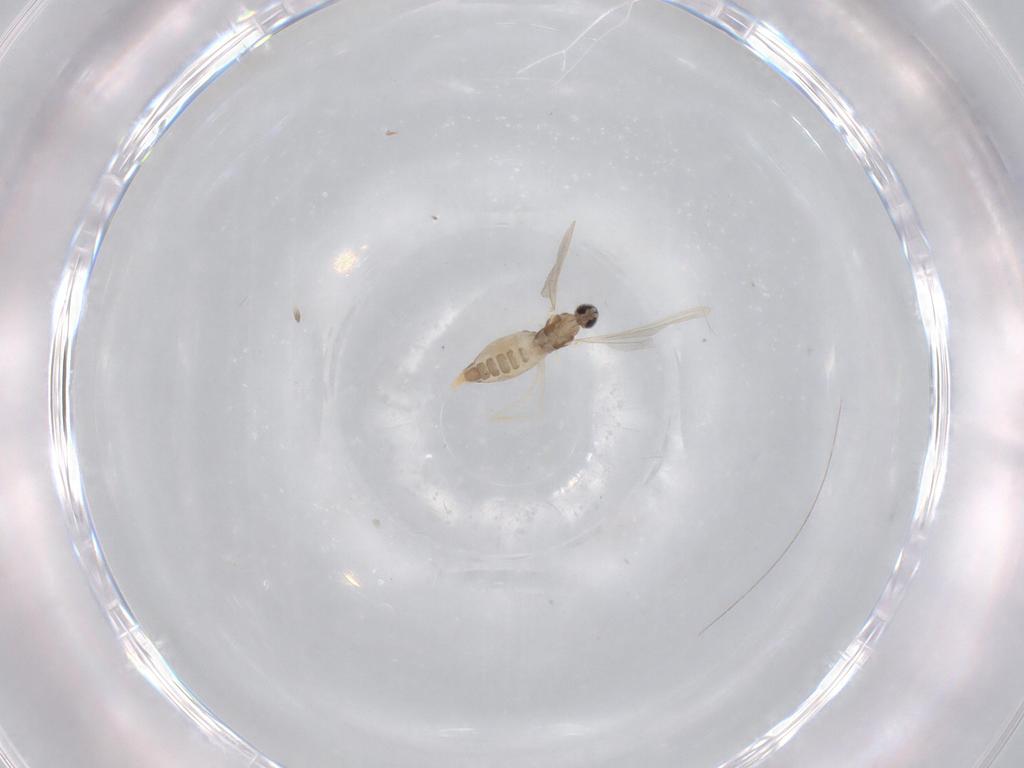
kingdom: Animalia
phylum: Arthropoda
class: Insecta
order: Diptera
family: Cecidomyiidae
